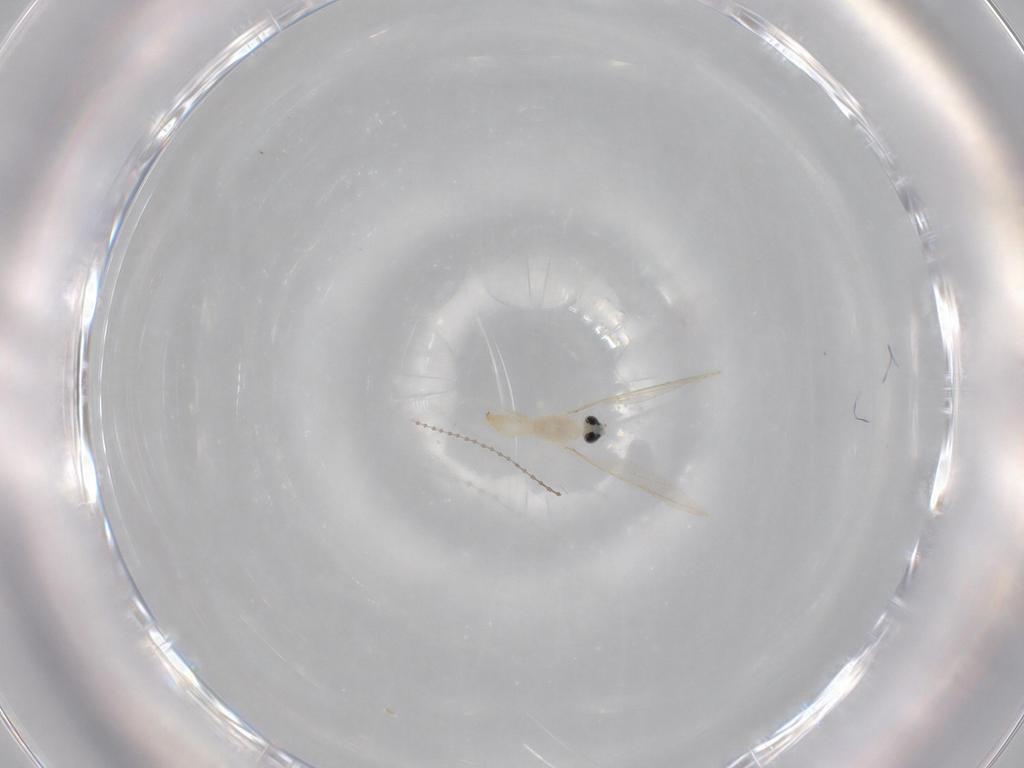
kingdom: Animalia
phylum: Arthropoda
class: Insecta
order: Diptera
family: Cecidomyiidae
